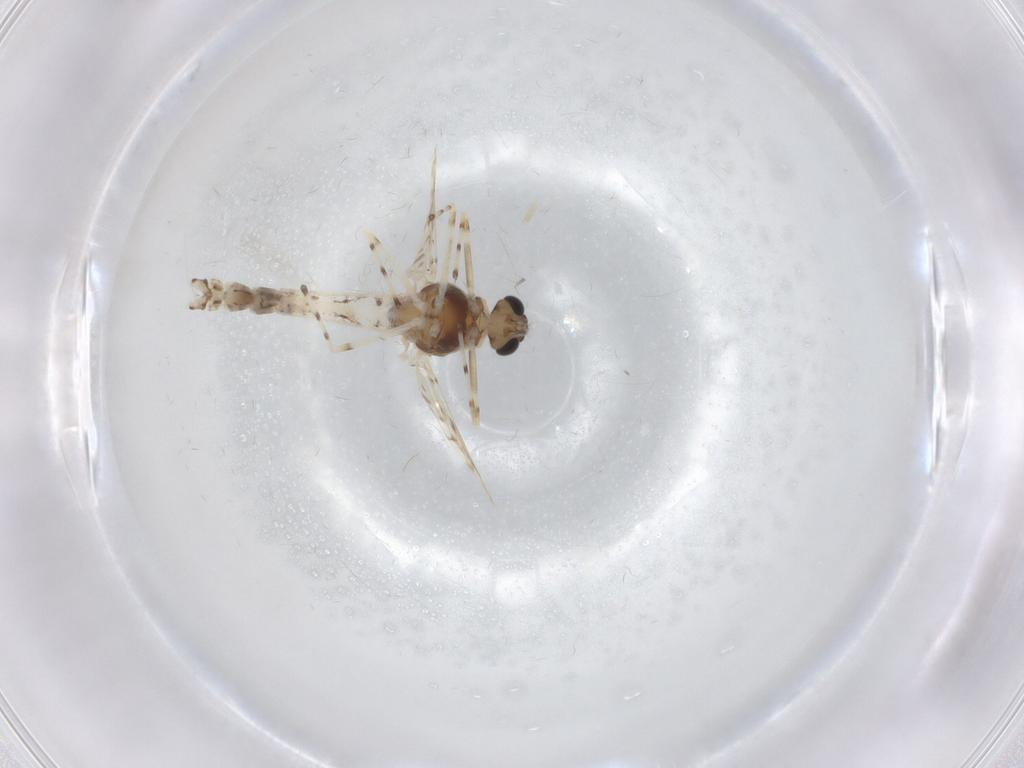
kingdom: Animalia
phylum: Arthropoda
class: Insecta
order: Diptera
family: Chironomidae
